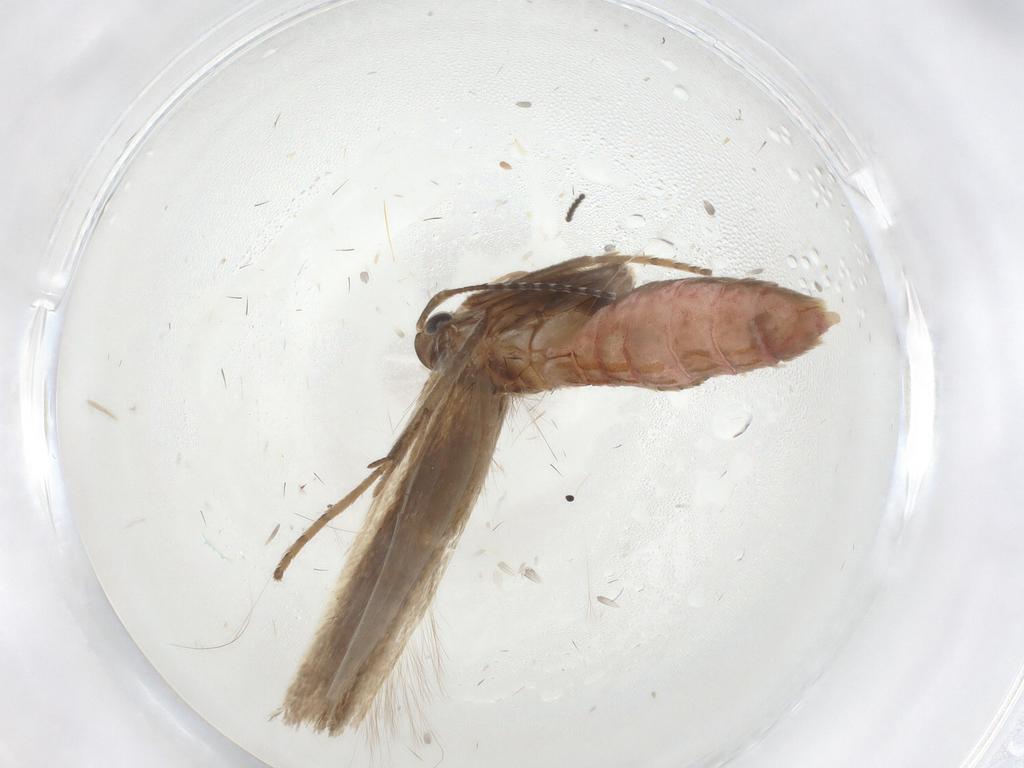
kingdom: Animalia
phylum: Arthropoda
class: Insecta
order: Lepidoptera
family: Coleophoridae
